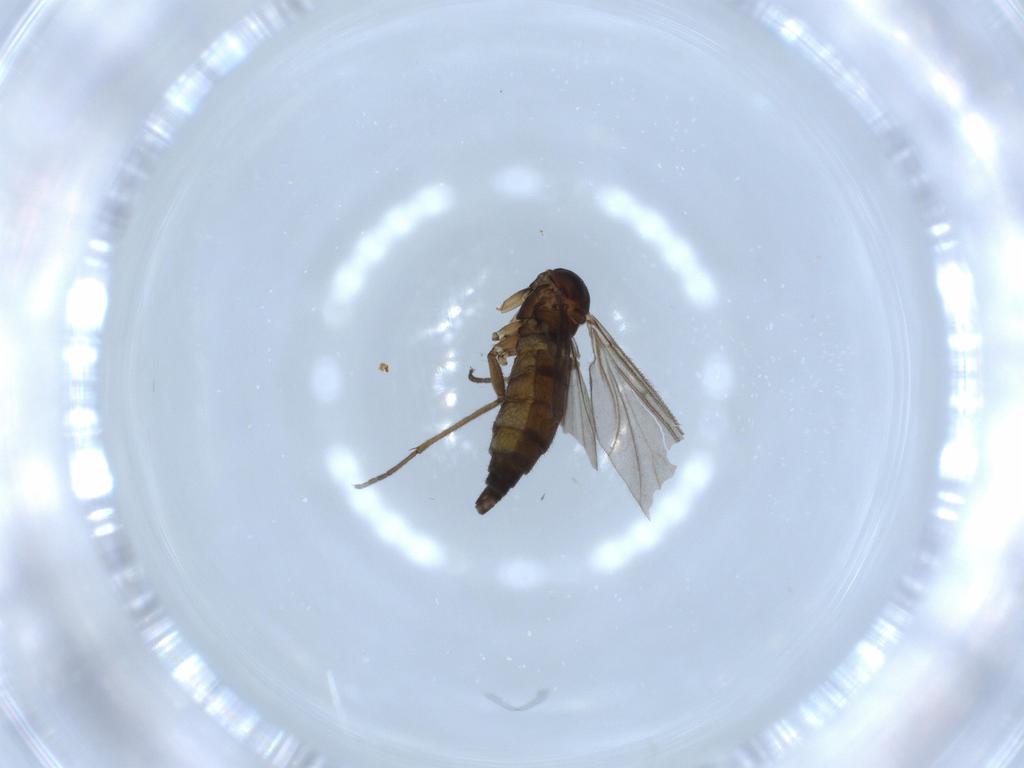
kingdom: Animalia
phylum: Arthropoda
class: Insecta
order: Diptera
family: Sciaridae
